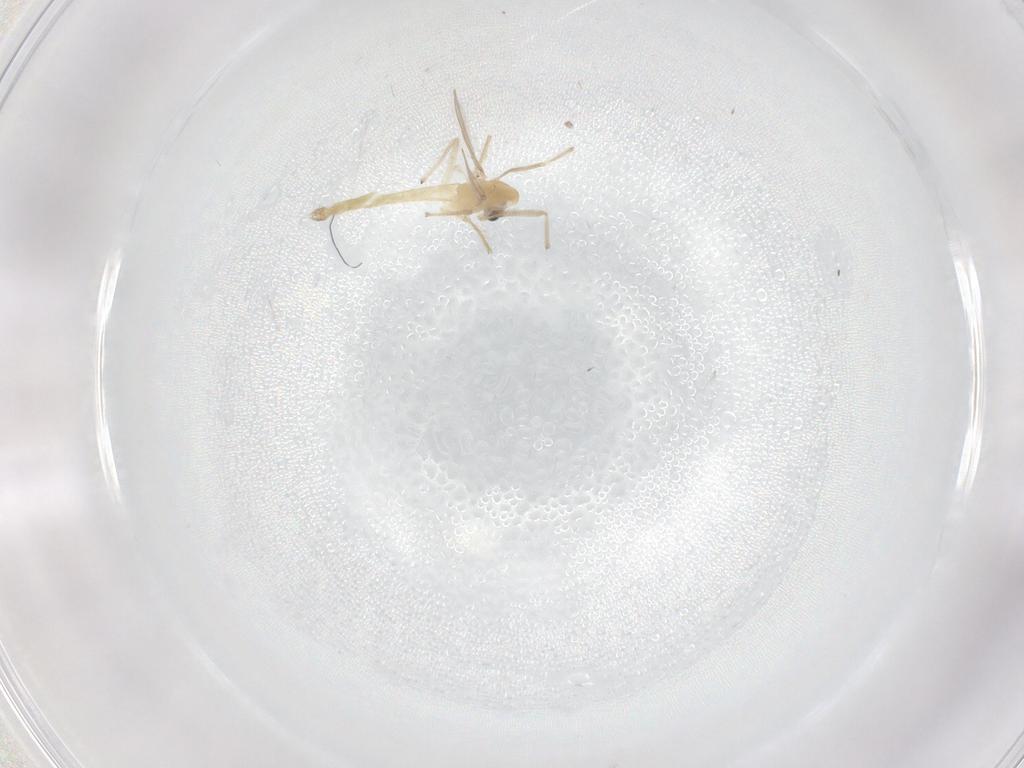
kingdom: Animalia
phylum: Arthropoda
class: Insecta
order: Diptera
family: Chironomidae
